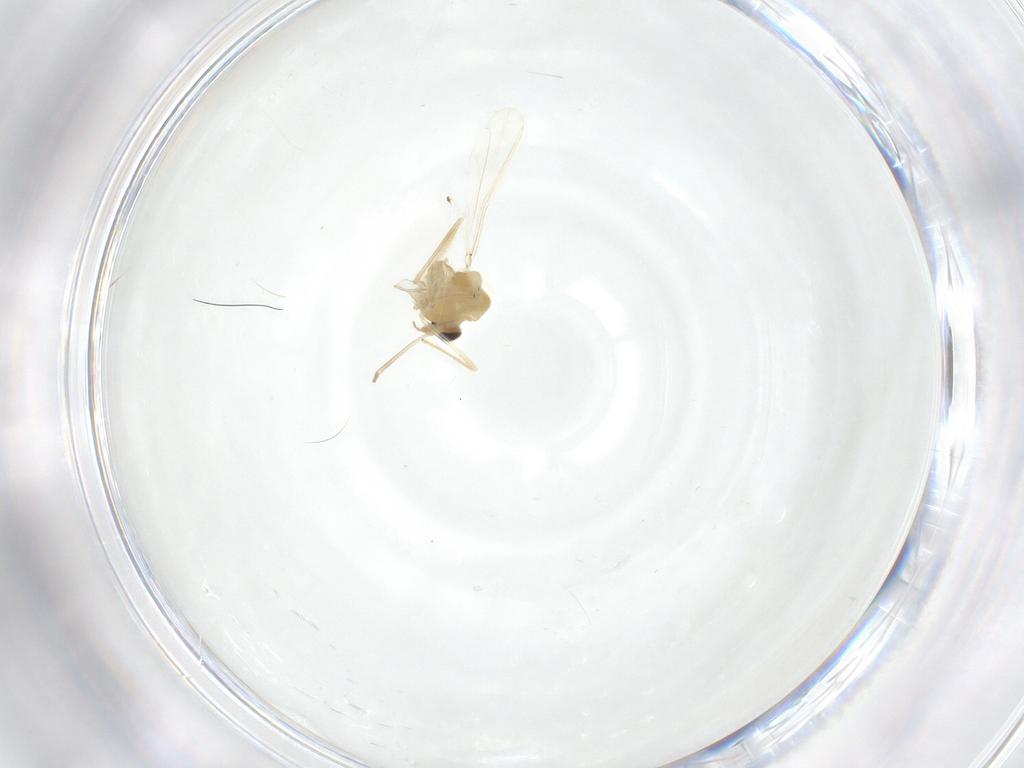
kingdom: Animalia
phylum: Arthropoda
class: Insecta
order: Diptera
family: Chironomidae
